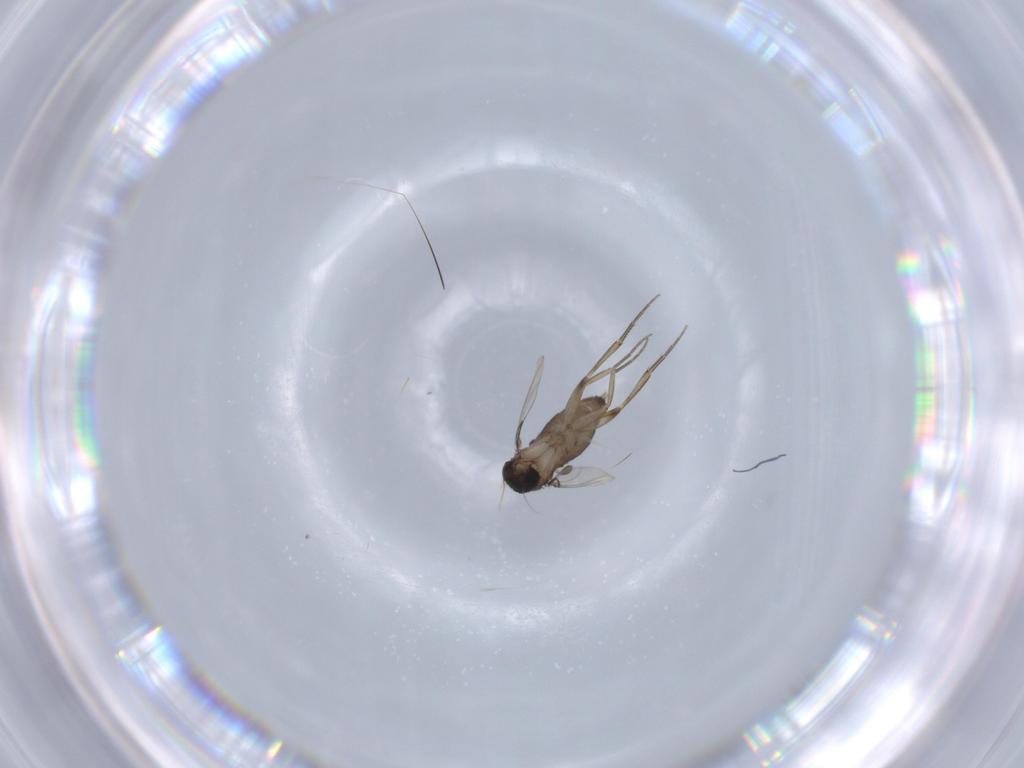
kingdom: Animalia
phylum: Arthropoda
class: Insecta
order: Diptera
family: Phoridae
